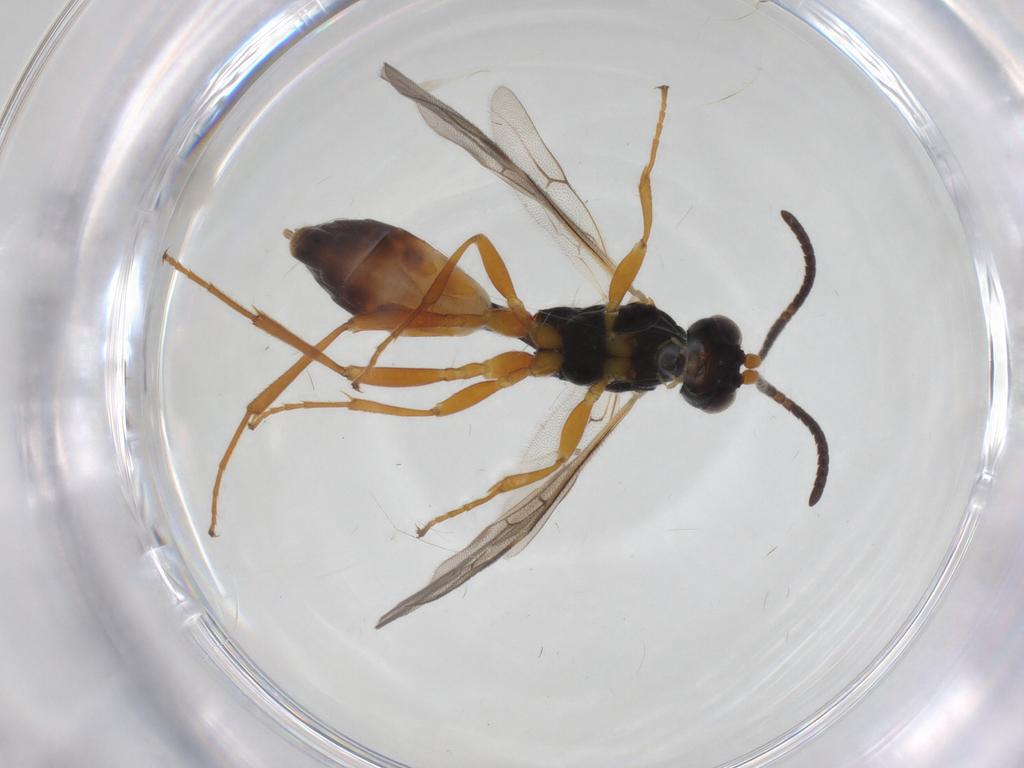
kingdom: Animalia
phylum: Arthropoda
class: Insecta
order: Hymenoptera
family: Ichneumonidae
